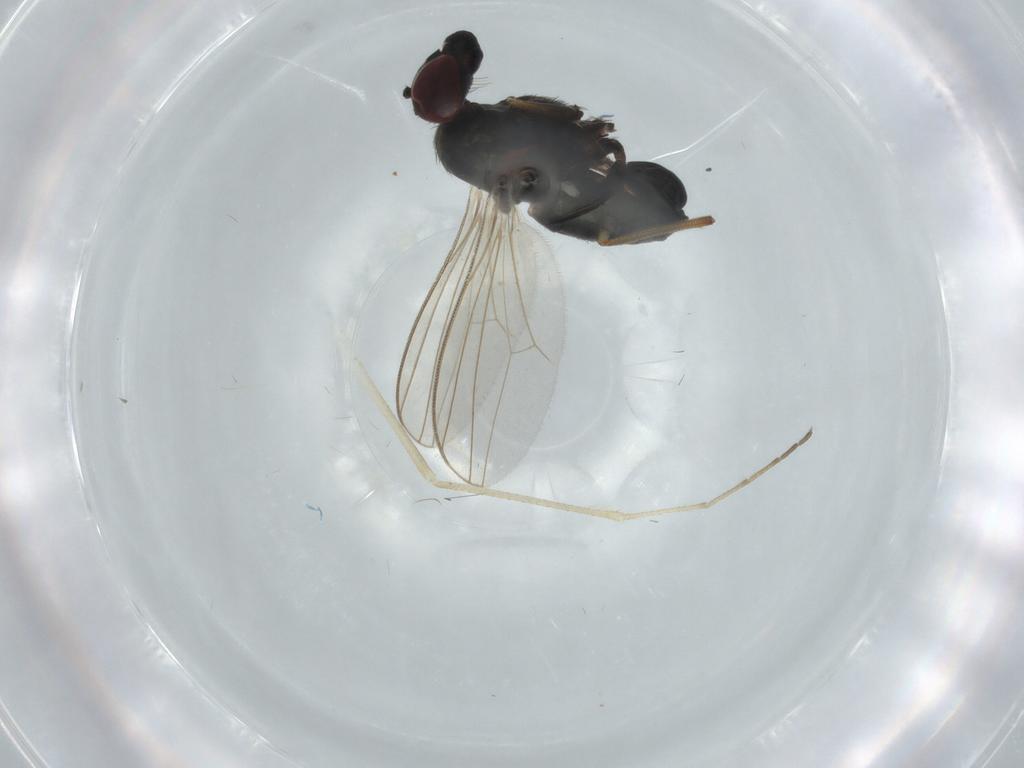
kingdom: Animalia
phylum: Arthropoda
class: Insecta
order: Diptera
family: Dolichopodidae
